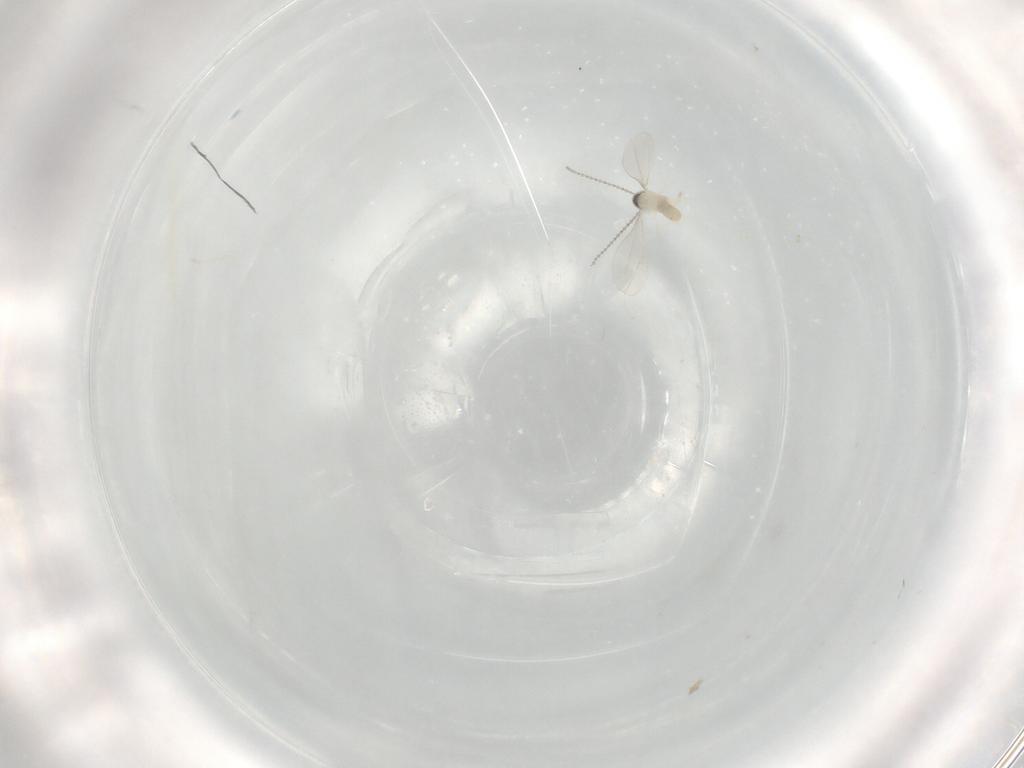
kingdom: Animalia
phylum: Arthropoda
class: Insecta
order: Diptera
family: Cecidomyiidae
